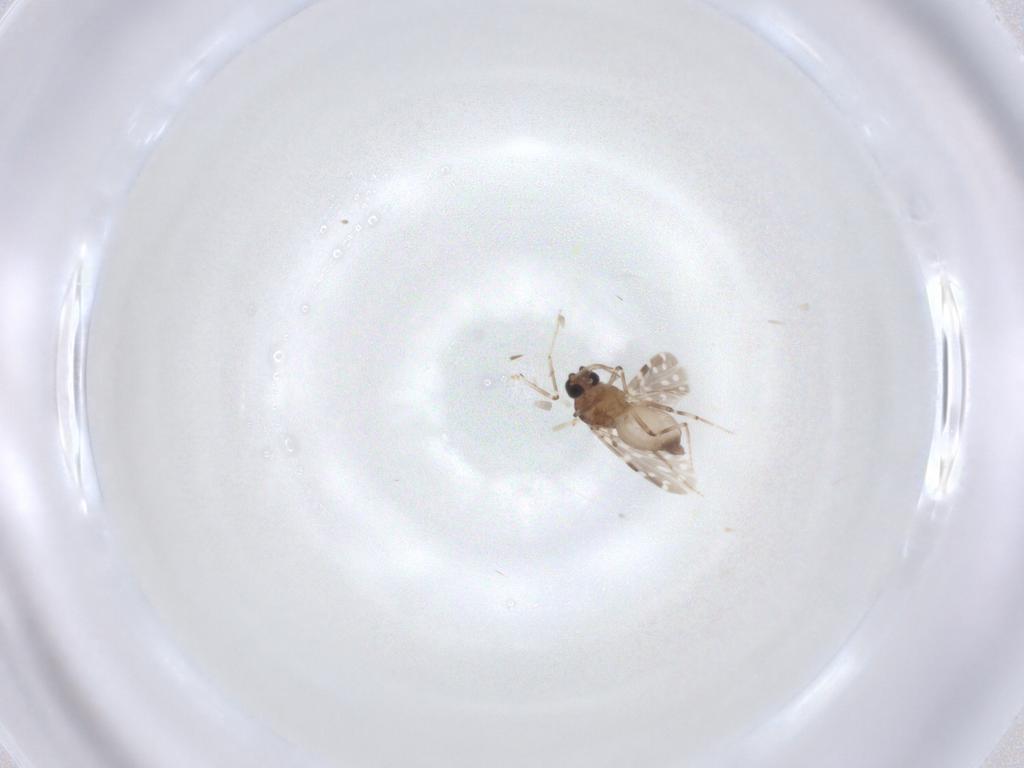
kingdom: Animalia
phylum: Arthropoda
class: Insecta
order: Diptera
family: Ceratopogonidae
